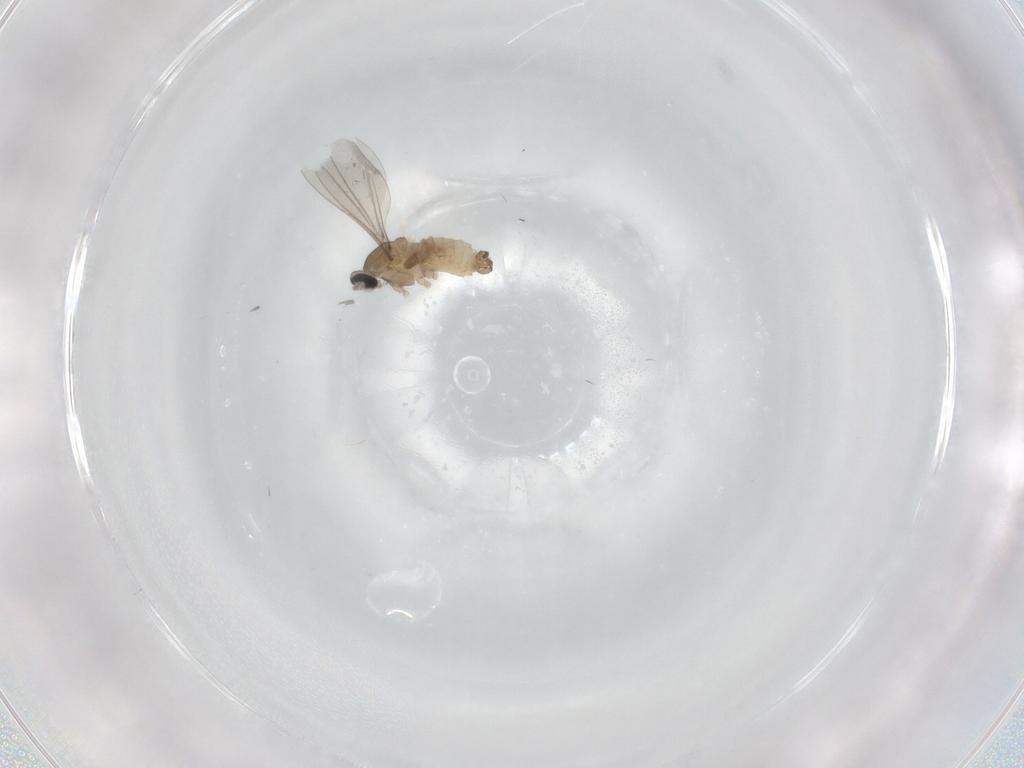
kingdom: Animalia
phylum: Arthropoda
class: Insecta
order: Diptera
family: Cecidomyiidae
